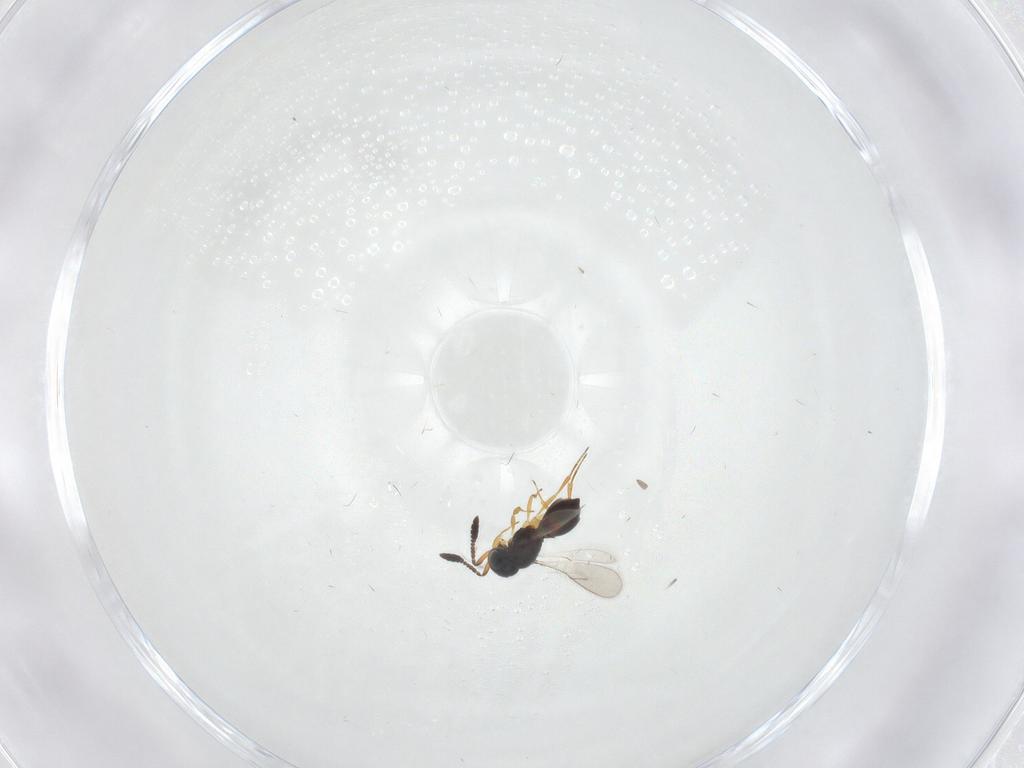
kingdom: Animalia
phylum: Arthropoda
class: Insecta
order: Hymenoptera
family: Scelionidae
